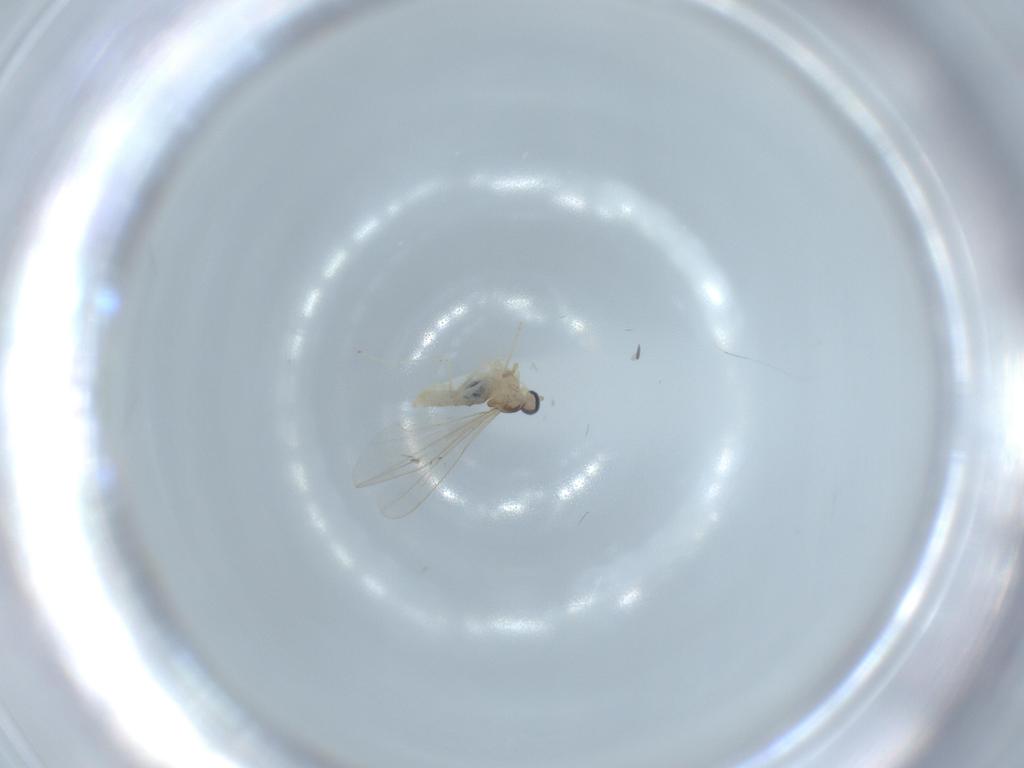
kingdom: Animalia
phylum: Arthropoda
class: Insecta
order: Diptera
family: Cecidomyiidae
